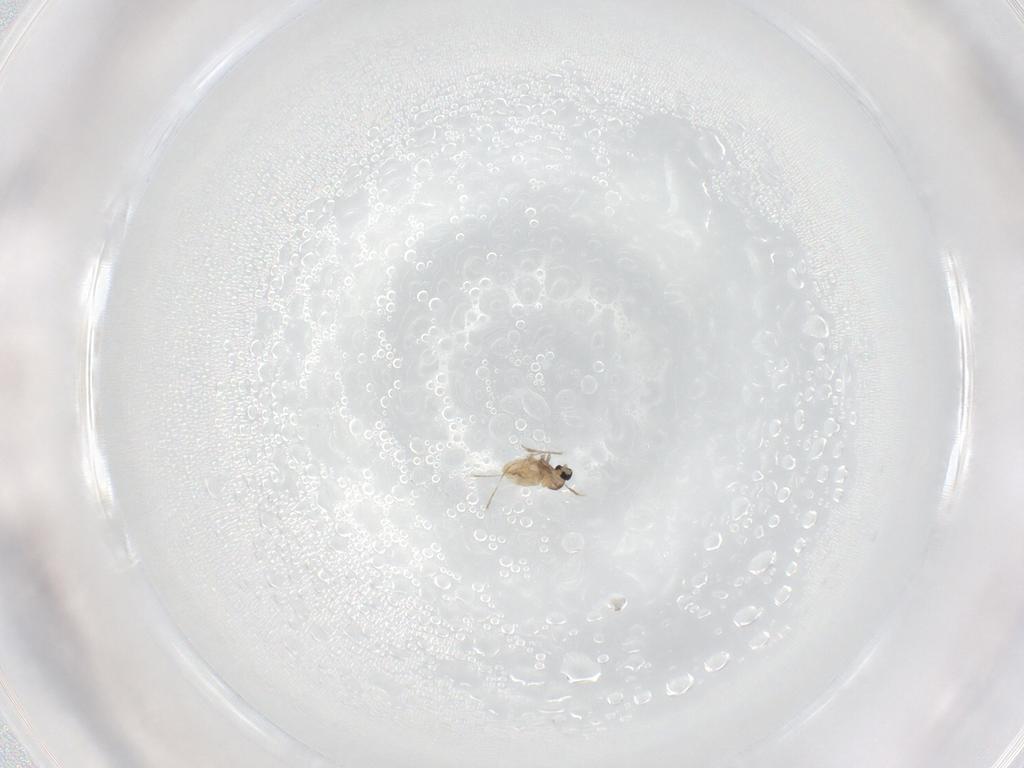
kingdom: Animalia
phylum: Arthropoda
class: Insecta
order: Diptera
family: Cecidomyiidae
